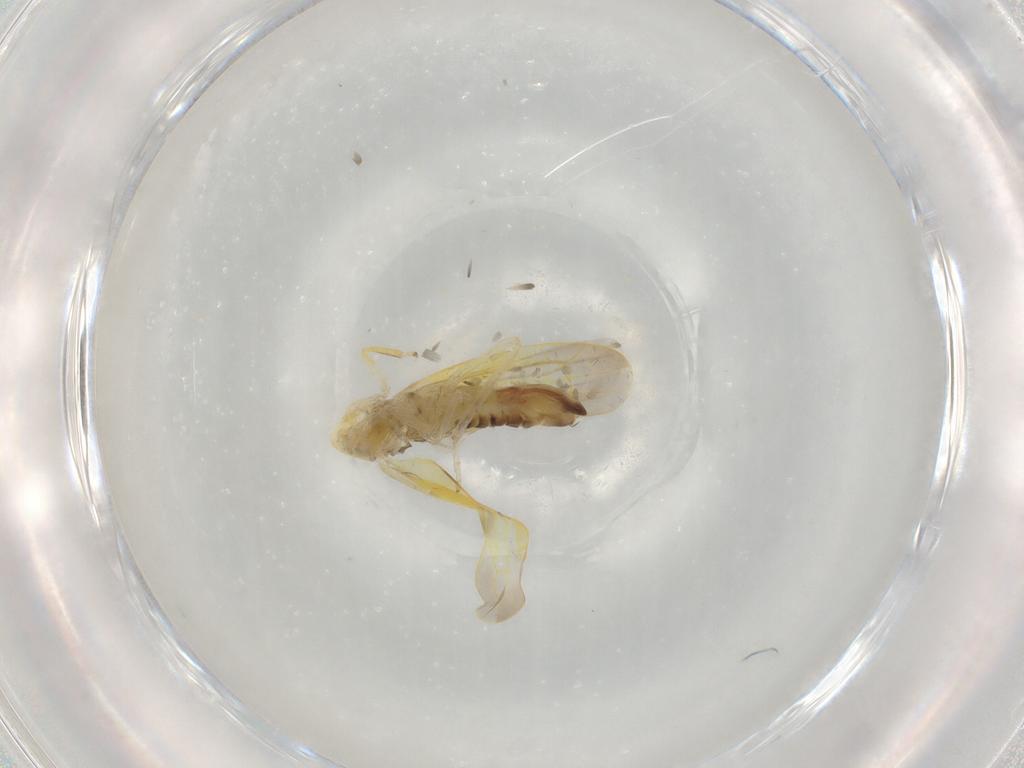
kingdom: Animalia
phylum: Arthropoda
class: Insecta
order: Hemiptera
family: Cicadellidae
